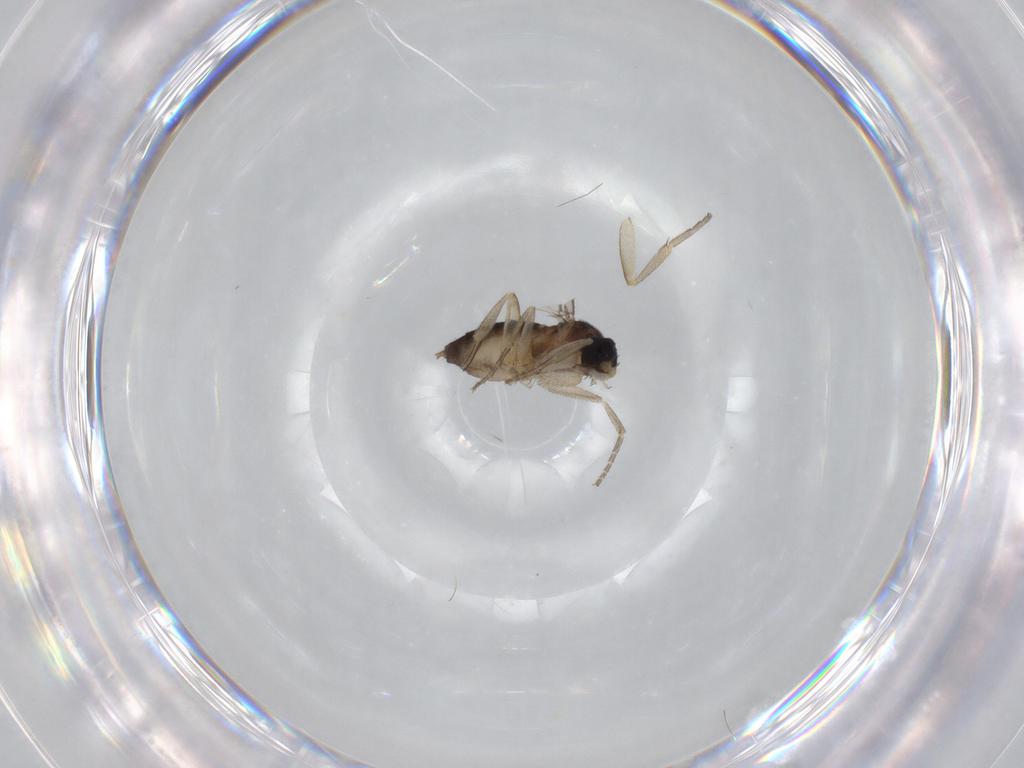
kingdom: Animalia
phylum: Arthropoda
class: Insecta
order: Diptera
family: Phoridae
